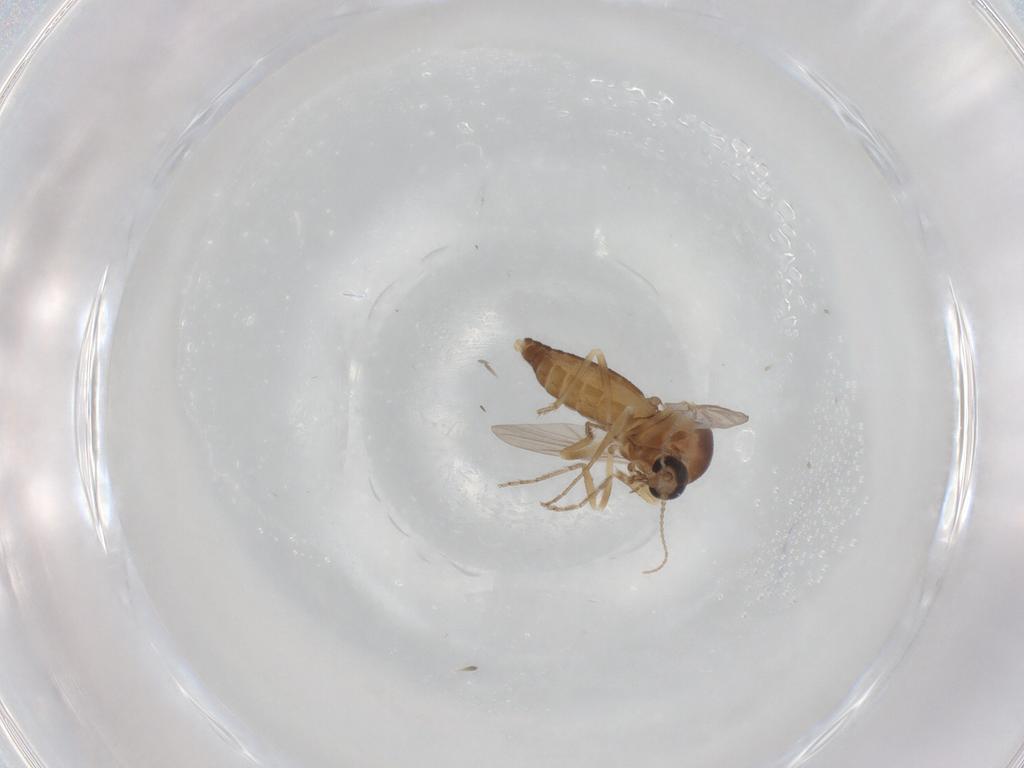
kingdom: Animalia
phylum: Arthropoda
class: Insecta
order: Diptera
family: Ceratopogonidae
